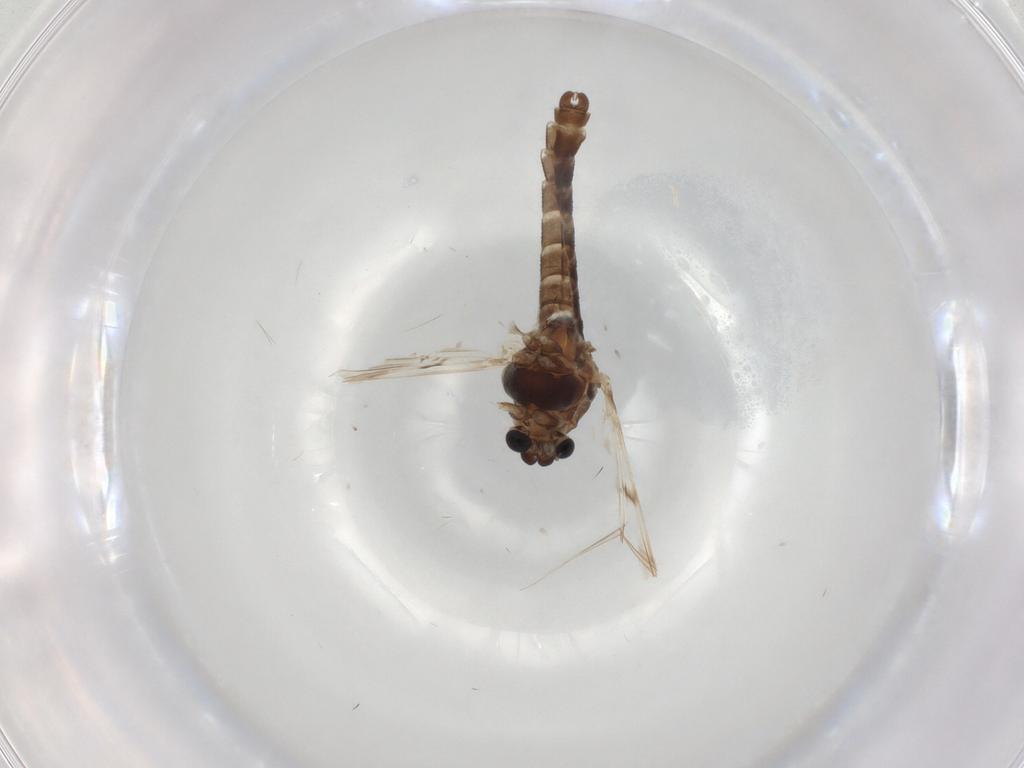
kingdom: Animalia
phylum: Arthropoda
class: Insecta
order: Diptera
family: Chironomidae
